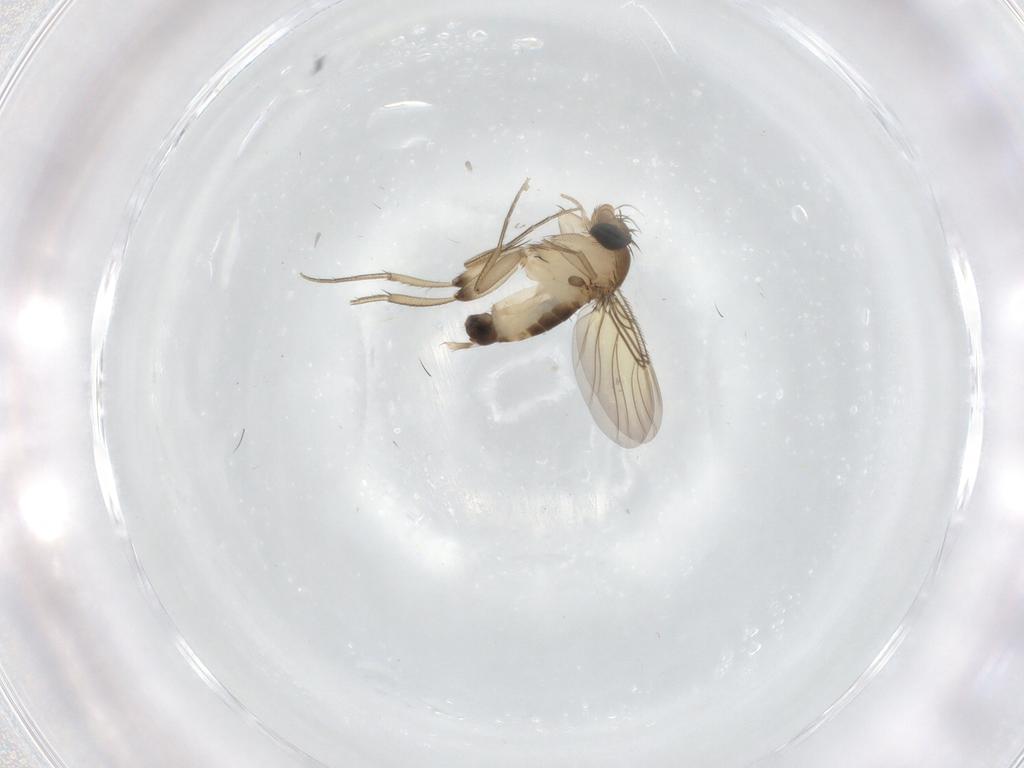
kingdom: Animalia
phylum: Arthropoda
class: Insecta
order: Diptera
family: Phoridae
